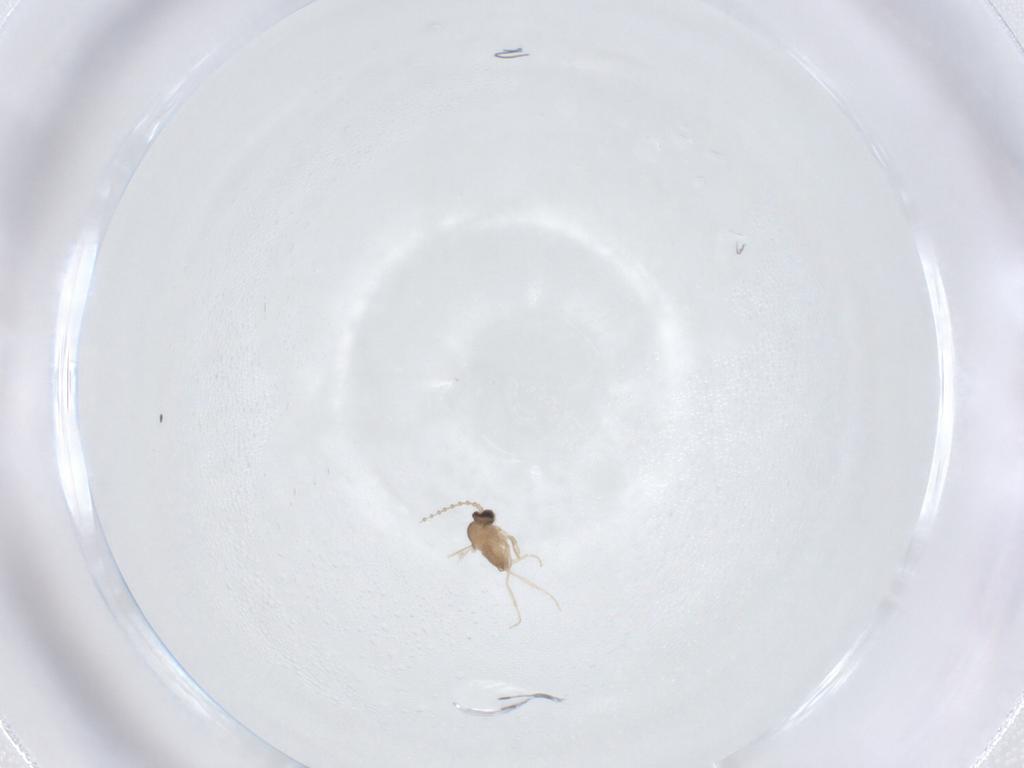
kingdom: Animalia
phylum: Arthropoda
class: Insecta
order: Diptera
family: Cecidomyiidae
